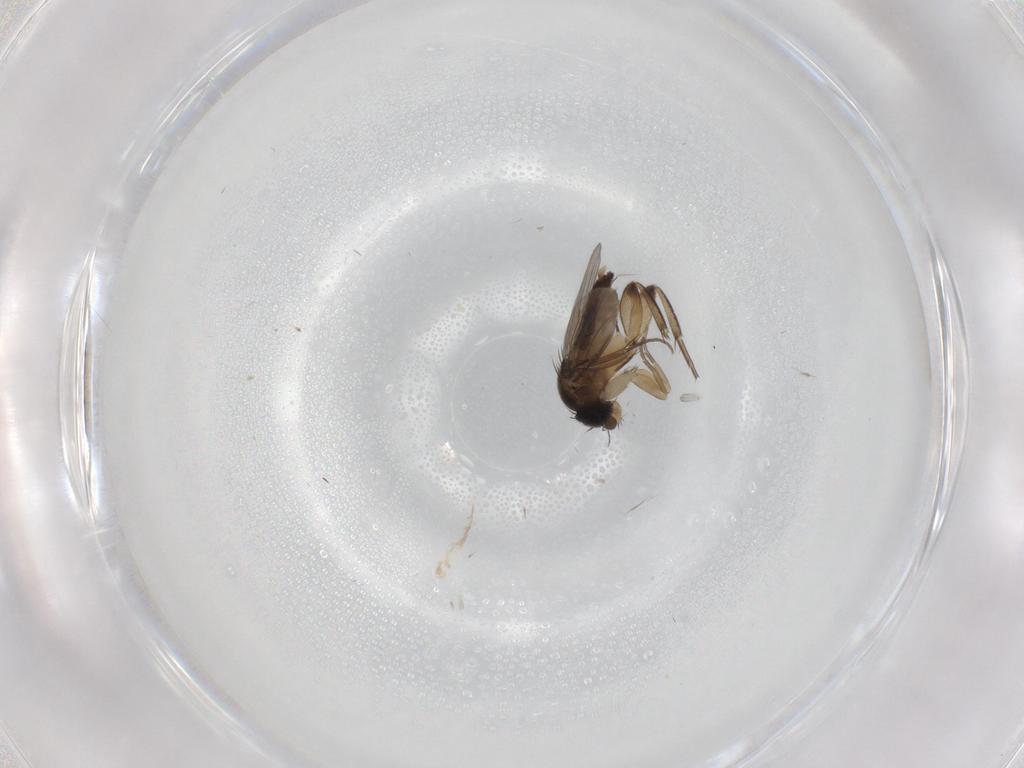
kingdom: Animalia
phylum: Arthropoda
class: Insecta
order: Diptera
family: Phoridae
